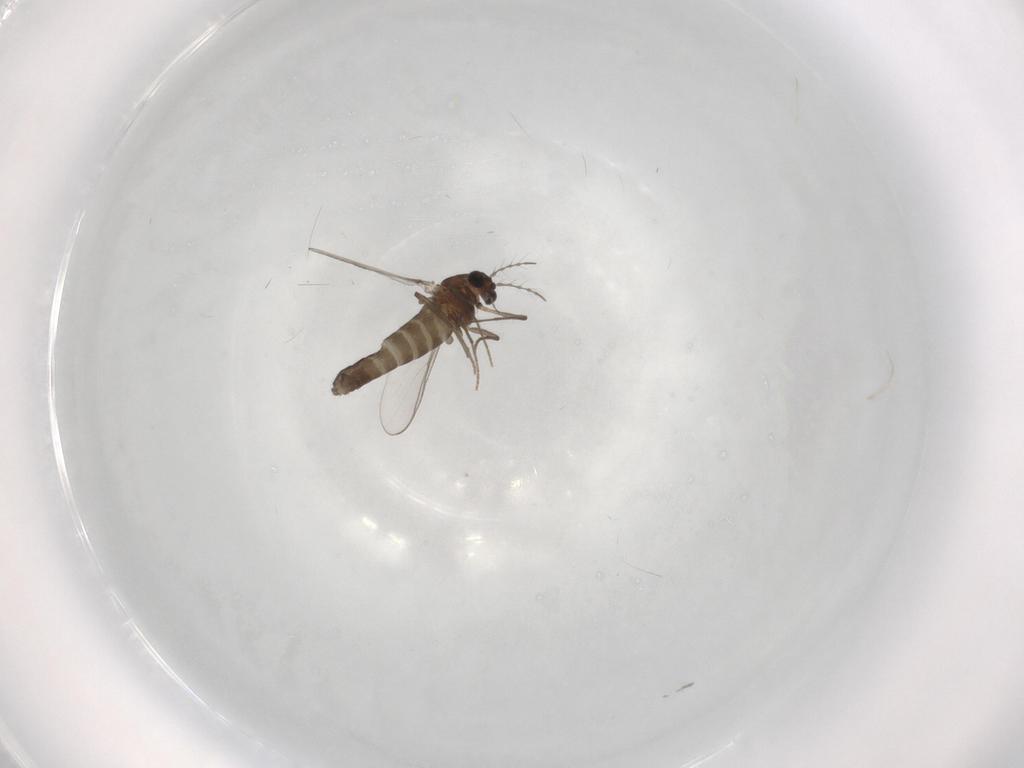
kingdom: Animalia
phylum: Arthropoda
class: Insecta
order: Diptera
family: Chironomidae
